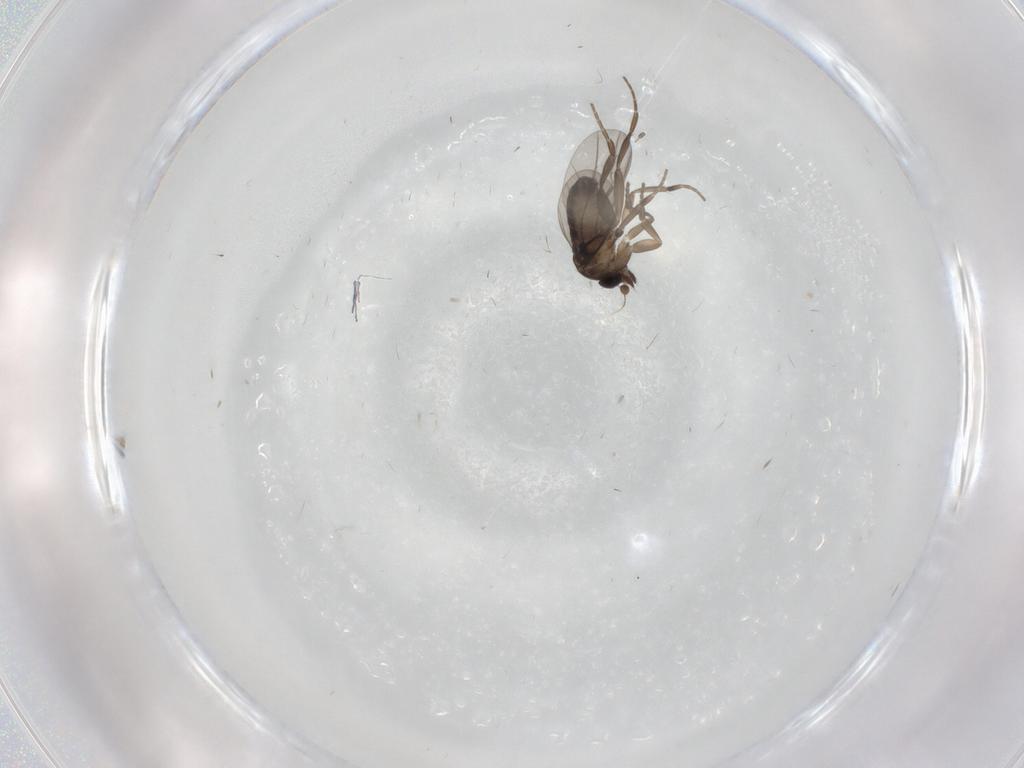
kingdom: Animalia
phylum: Arthropoda
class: Insecta
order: Diptera
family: Phoridae
